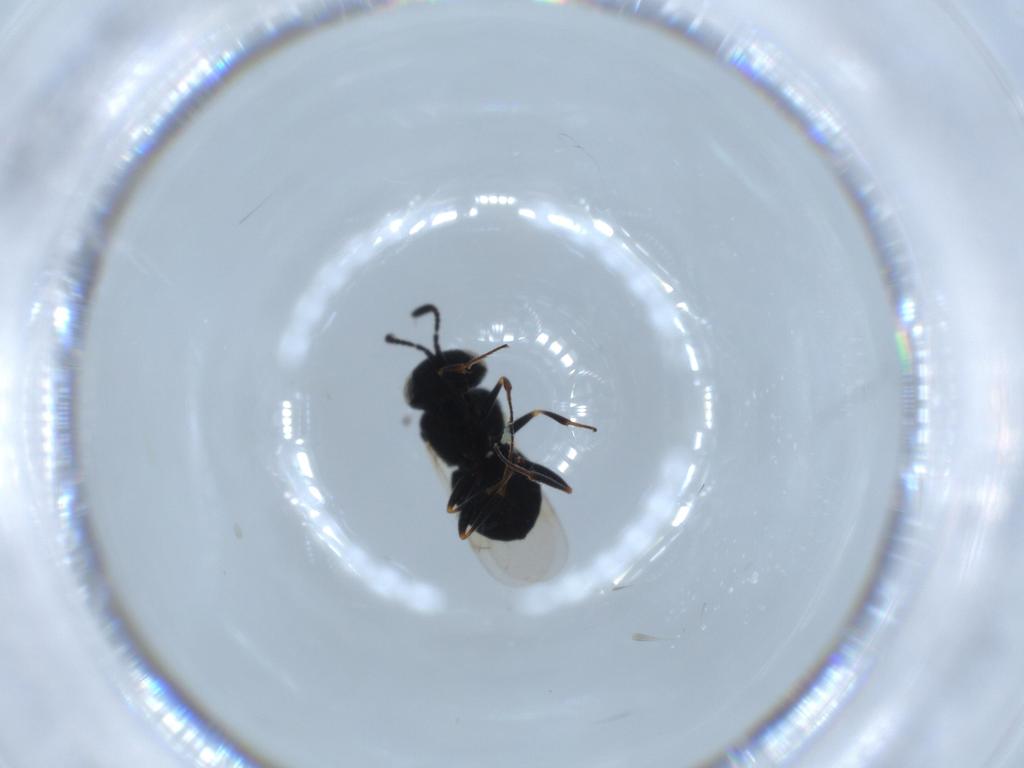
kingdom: Animalia
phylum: Arthropoda
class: Insecta
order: Hymenoptera
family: Scelionidae
